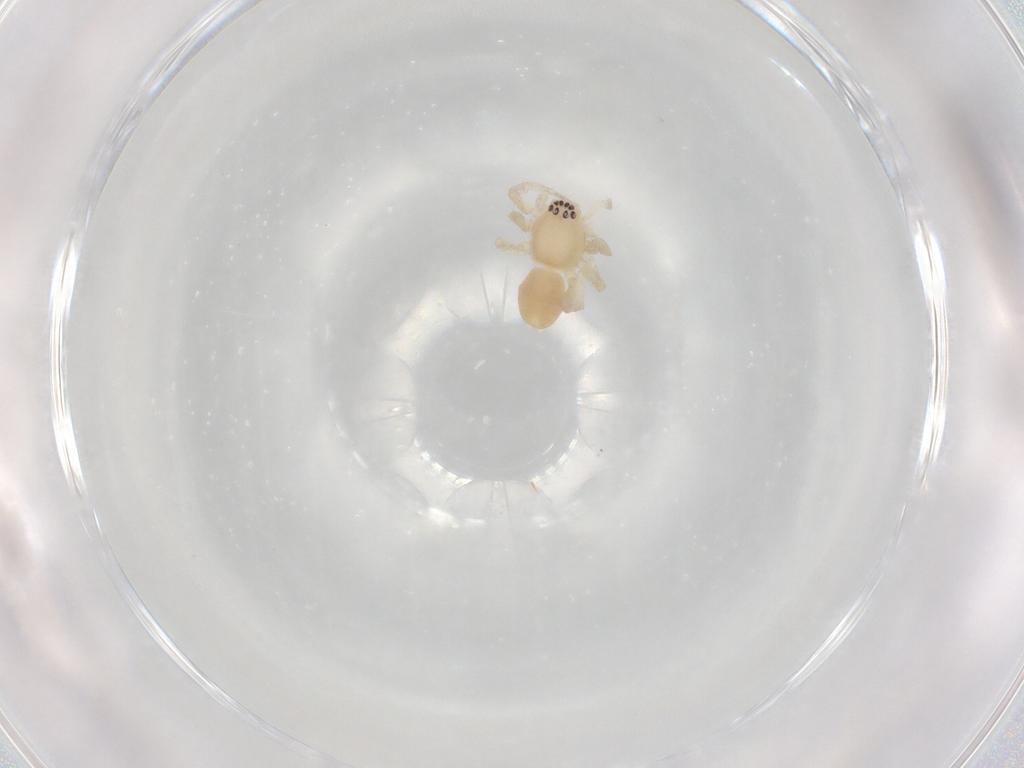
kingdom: Animalia
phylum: Arthropoda
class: Arachnida
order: Araneae
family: Anyphaenidae
